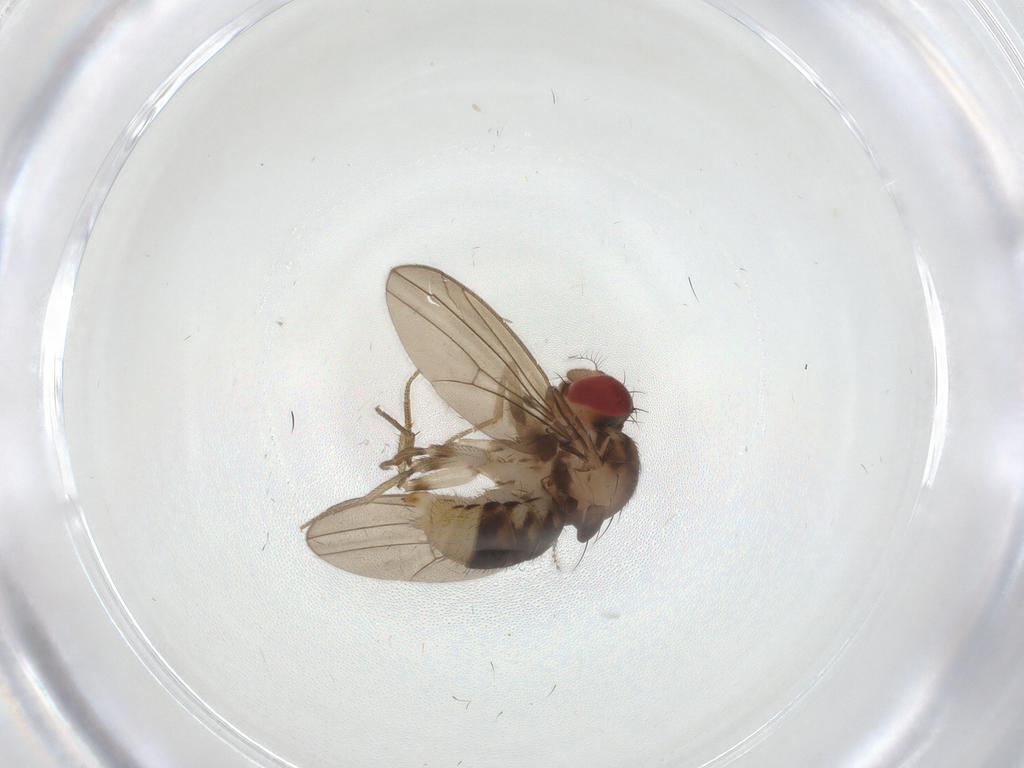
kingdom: Animalia
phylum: Arthropoda
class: Insecta
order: Diptera
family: Drosophilidae
